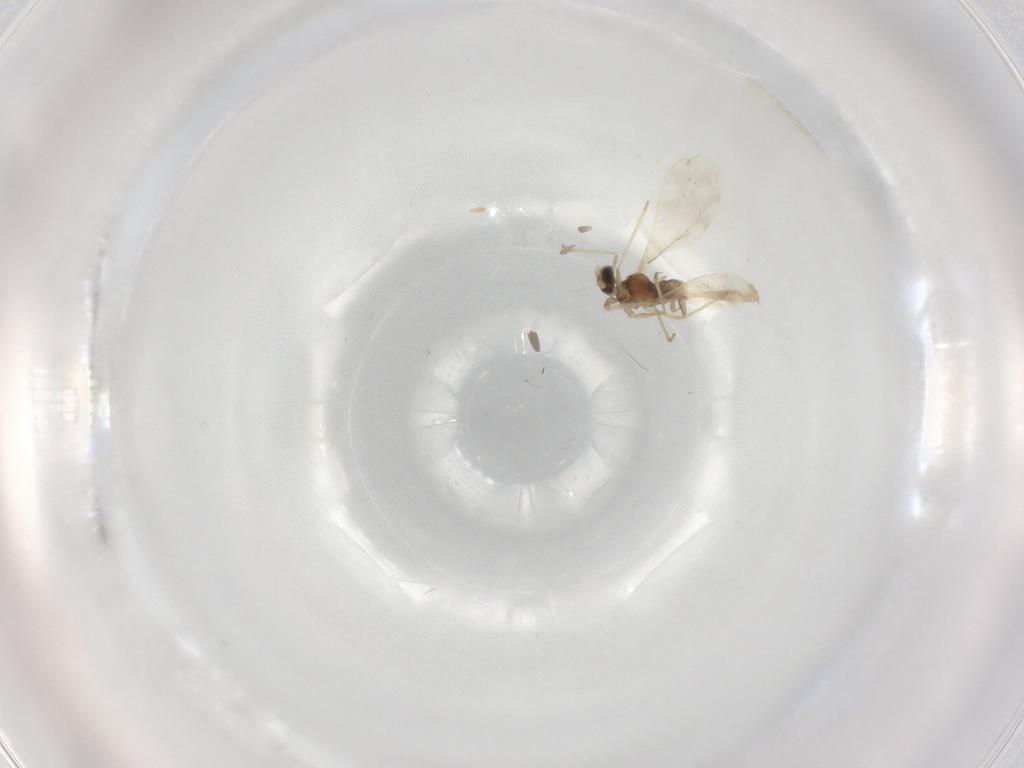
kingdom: Animalia
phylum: Arthropoda
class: Insecta
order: Diptera
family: Cecidomyiidae
